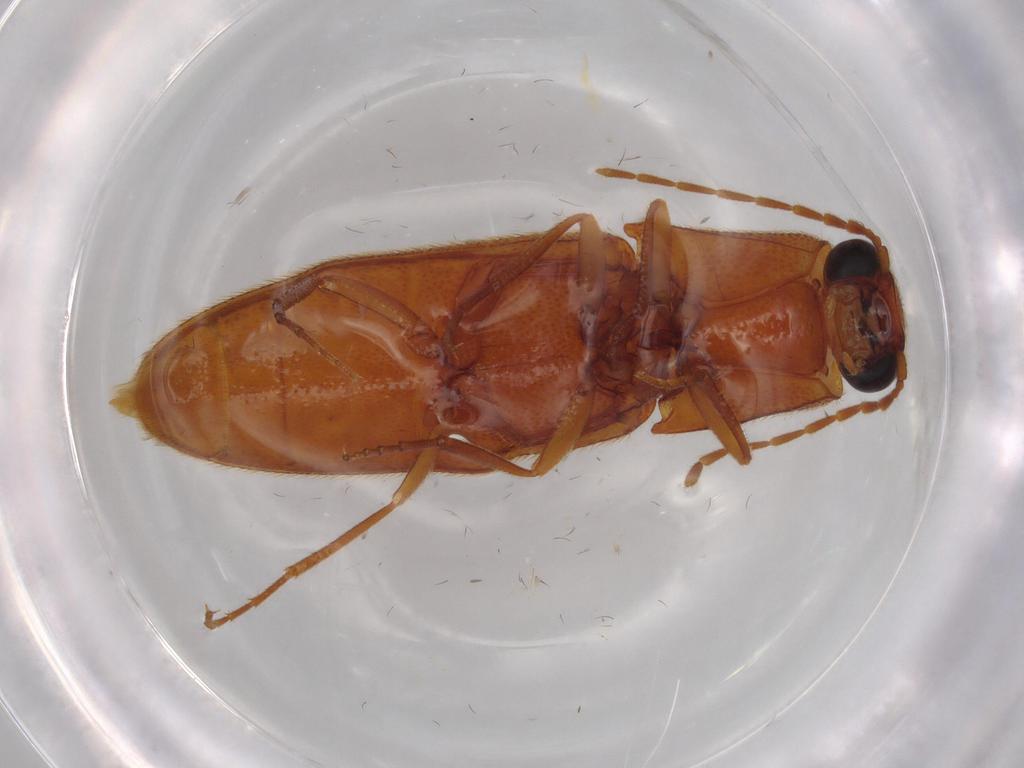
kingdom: Animalia
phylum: Arthropoda
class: Insecta
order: Coleoptera
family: Elateridae
